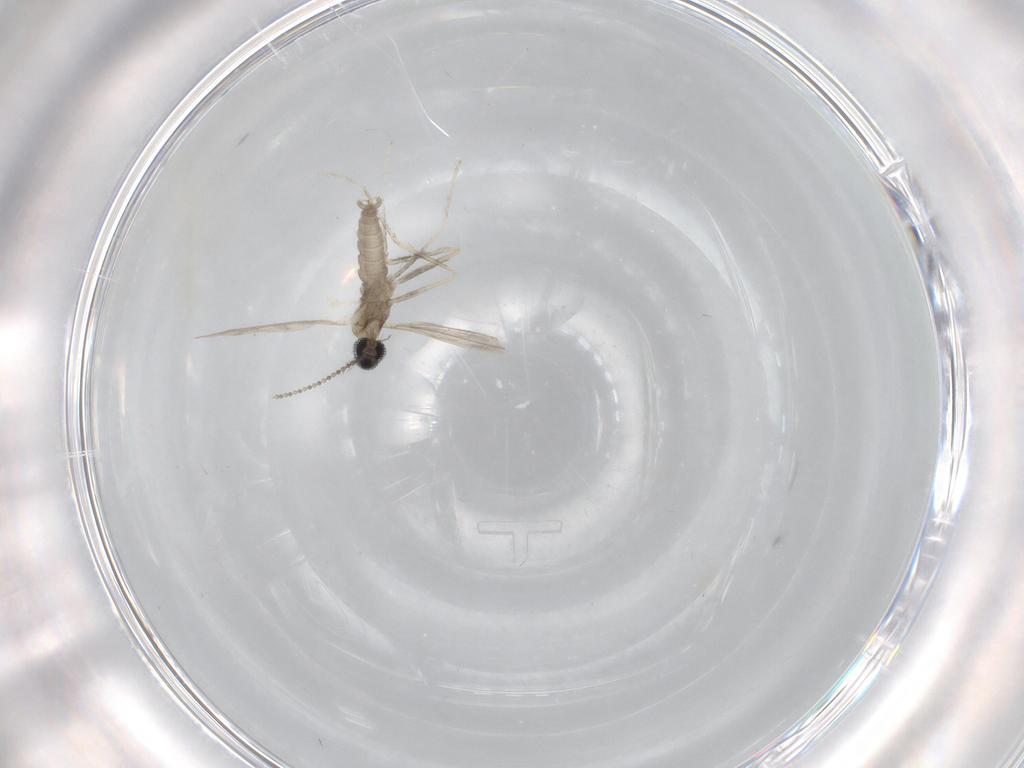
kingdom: Animalia
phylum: Arthropoda
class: Insecta
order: Diptera
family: Cecidomyiidae
